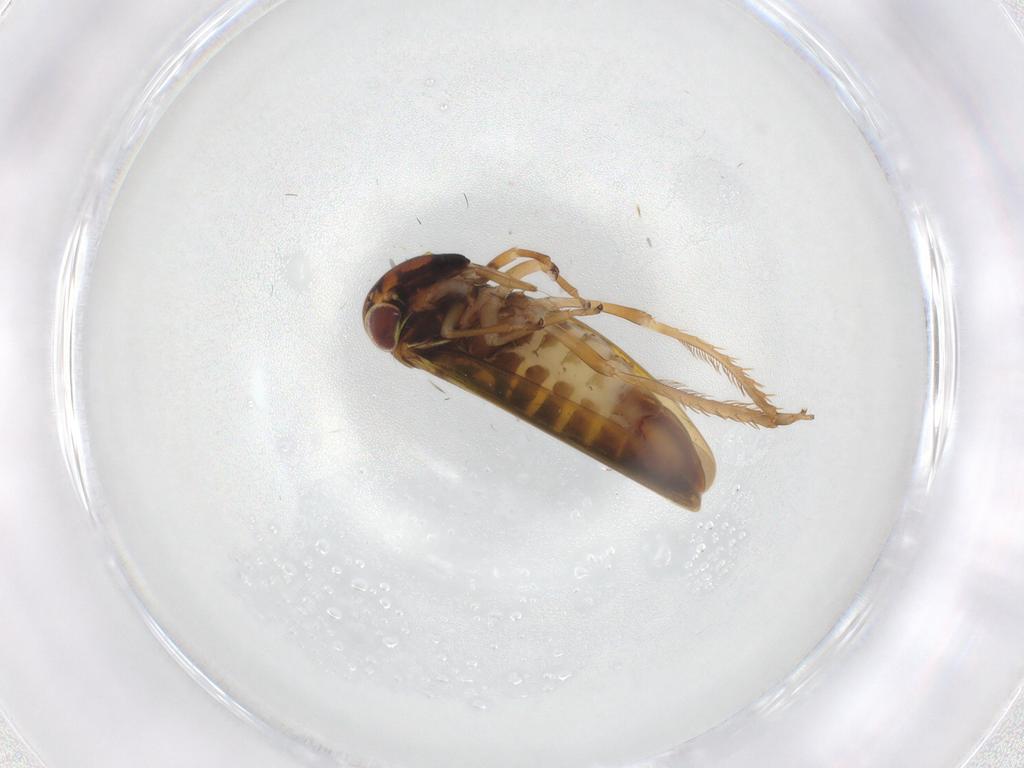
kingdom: Animalia
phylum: Arthropoda
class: Insecta
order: Hemiptera
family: Cicadellidae
